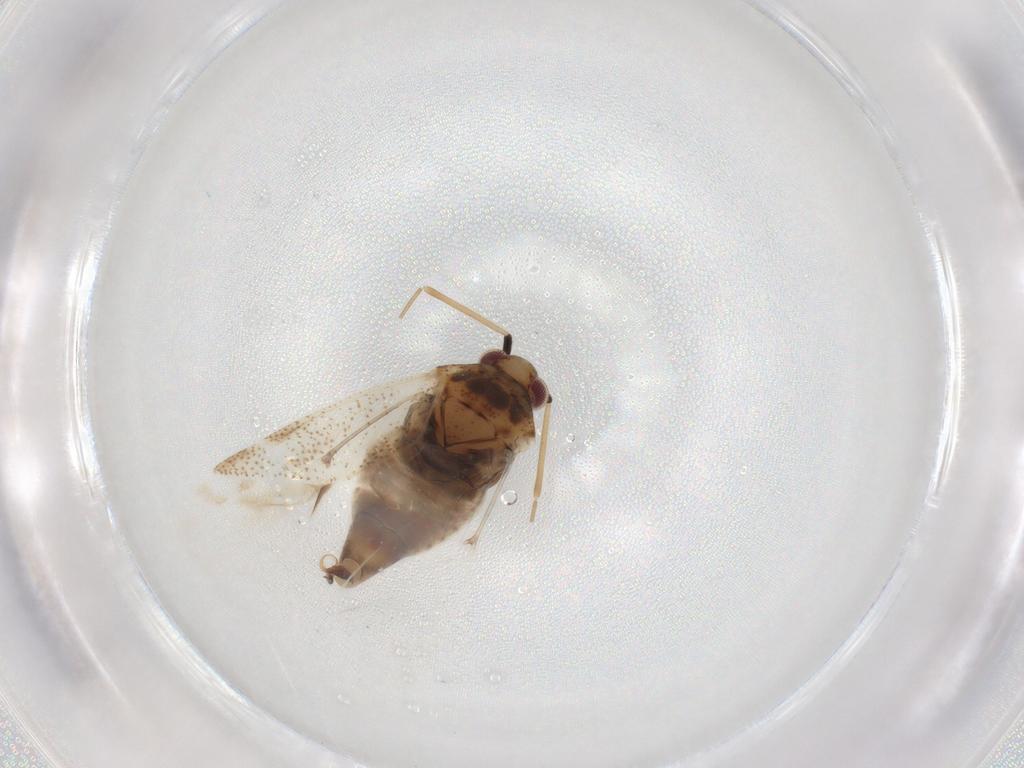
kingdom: Animalia
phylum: Arthropoda
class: Insecta
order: Hemiptera
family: Miridae
